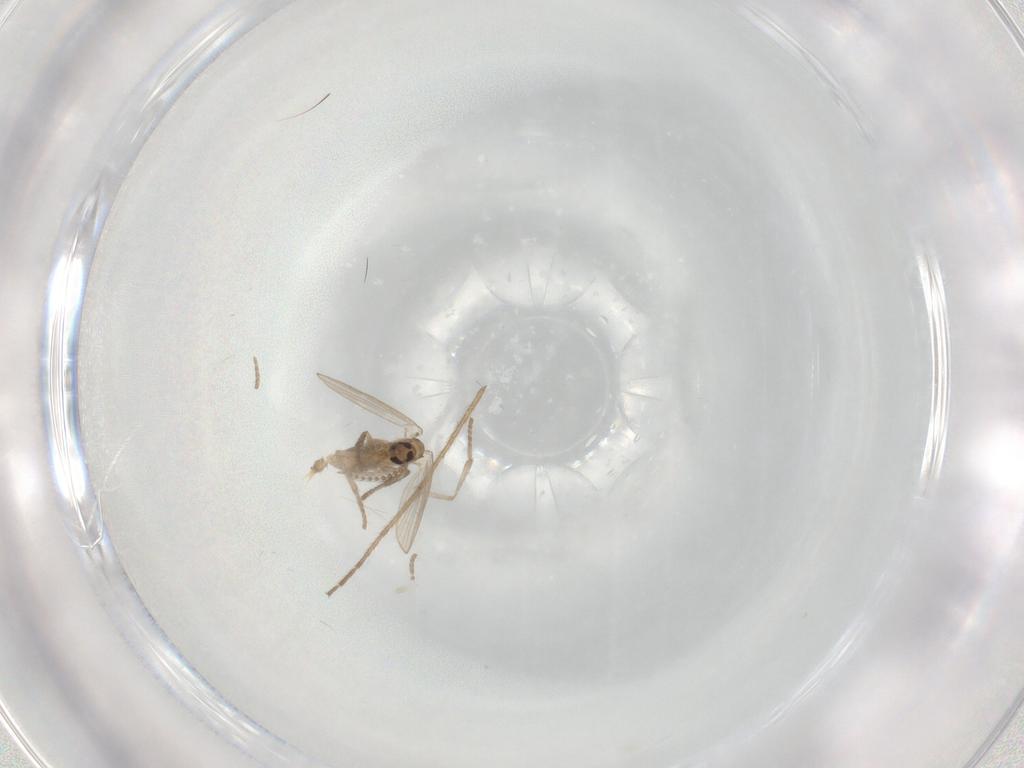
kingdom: Animalia
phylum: Arthropoda
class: Insecta
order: Diptera
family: Psychodidae
